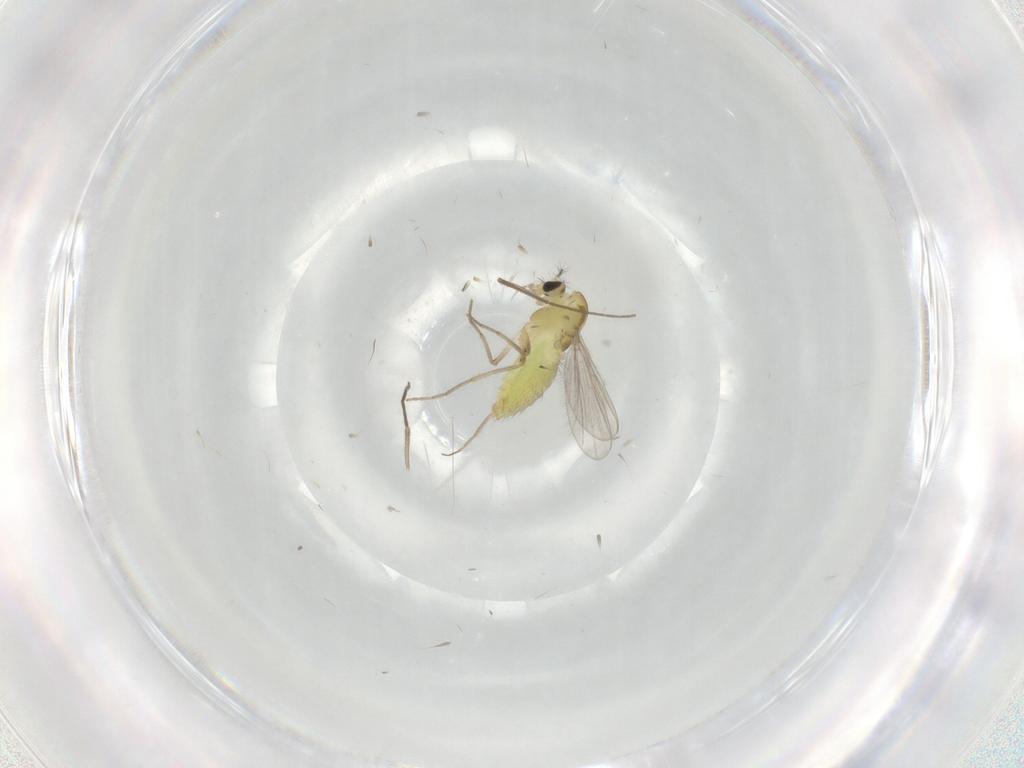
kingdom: Animalia
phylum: Arthropoda
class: Insecta
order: Diptera
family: Chironomidae
